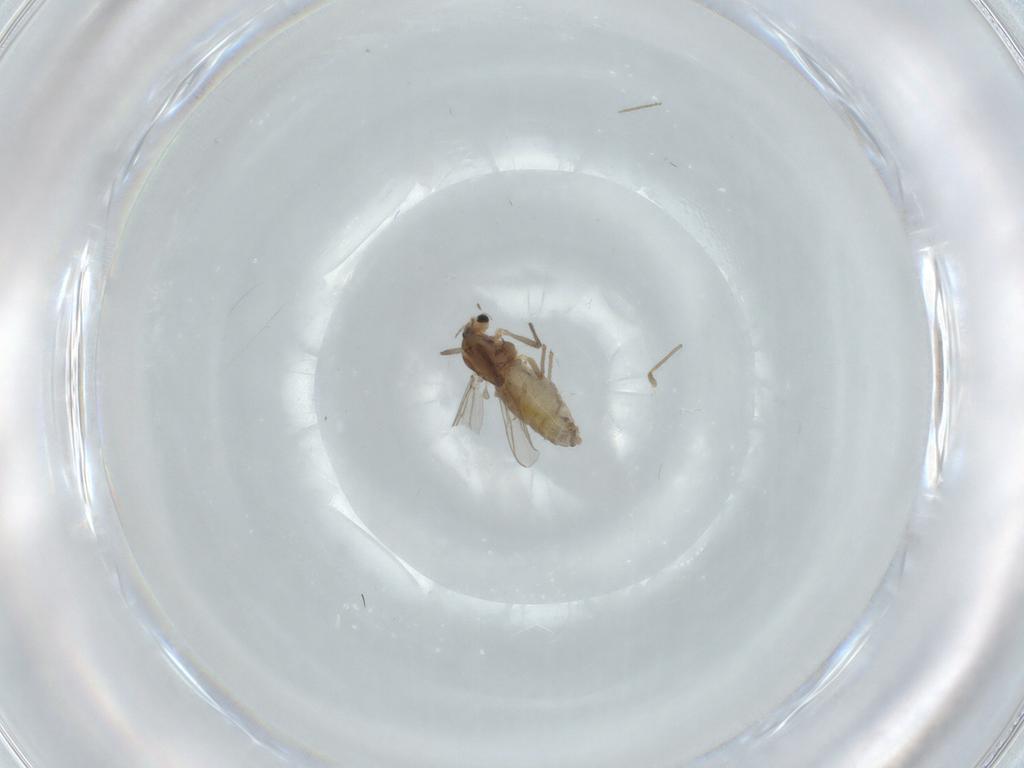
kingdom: Animalia
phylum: Arthropoda
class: Insecta
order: Diptera
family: Chironomidae
